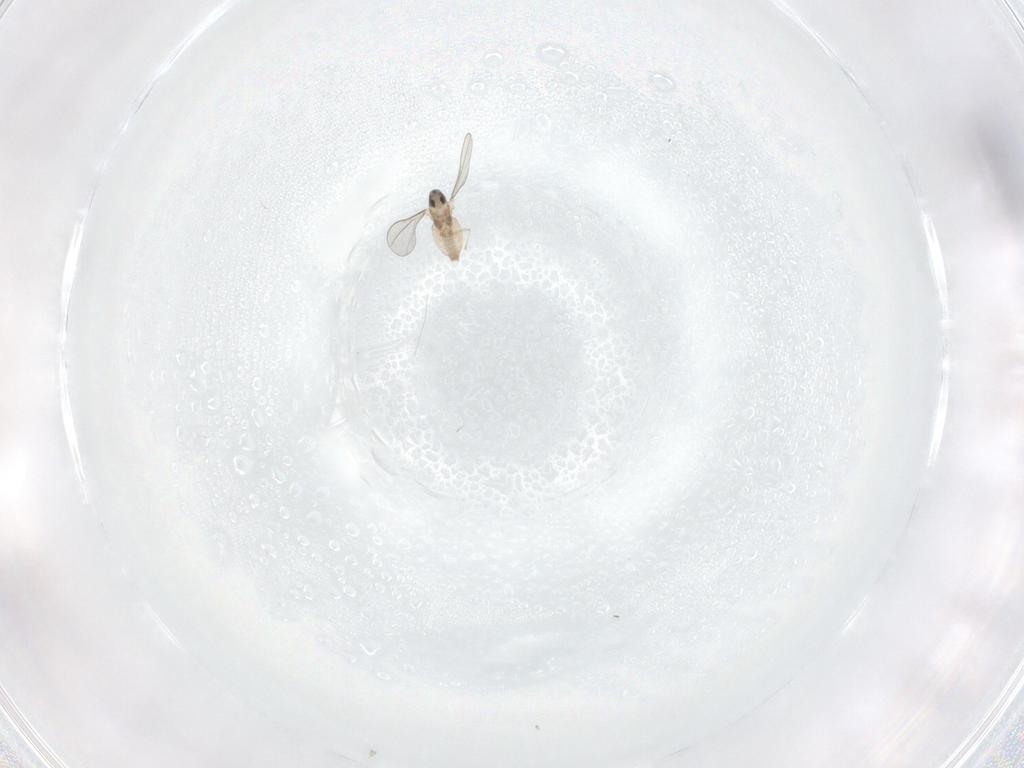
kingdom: Animalia
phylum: Arthropoda
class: Insecta
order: Diptera
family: Cecidomyiidae
